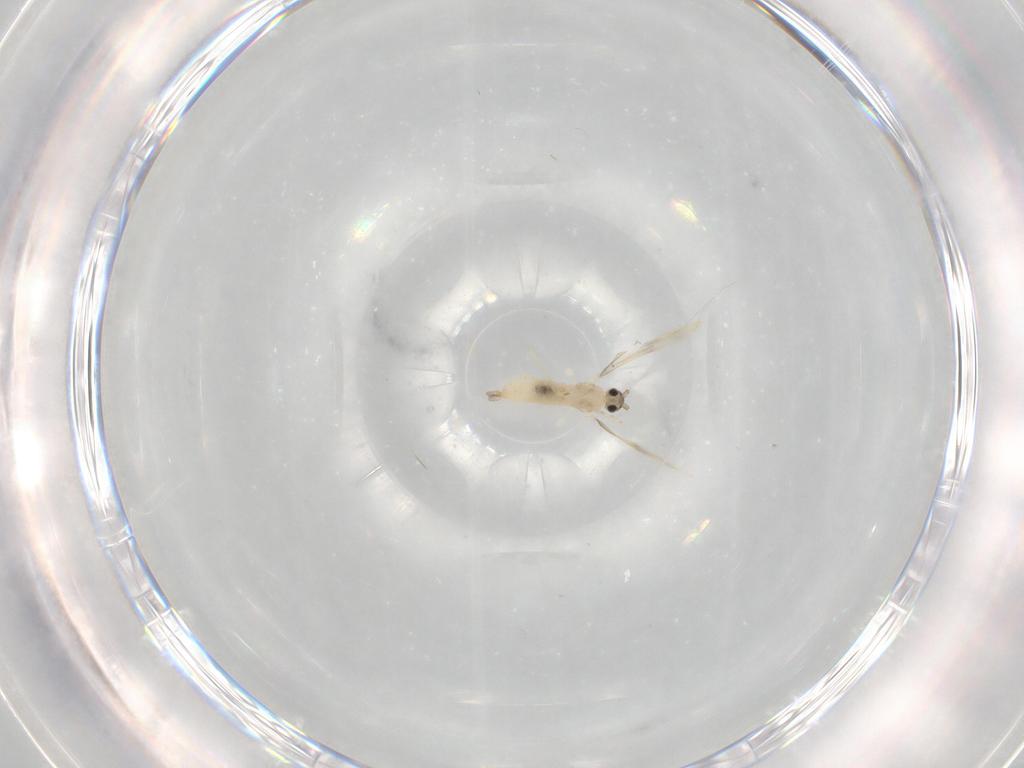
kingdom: Animalia
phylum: Arthropoda
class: Insecta
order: Diptera
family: Cecidomyiidae
